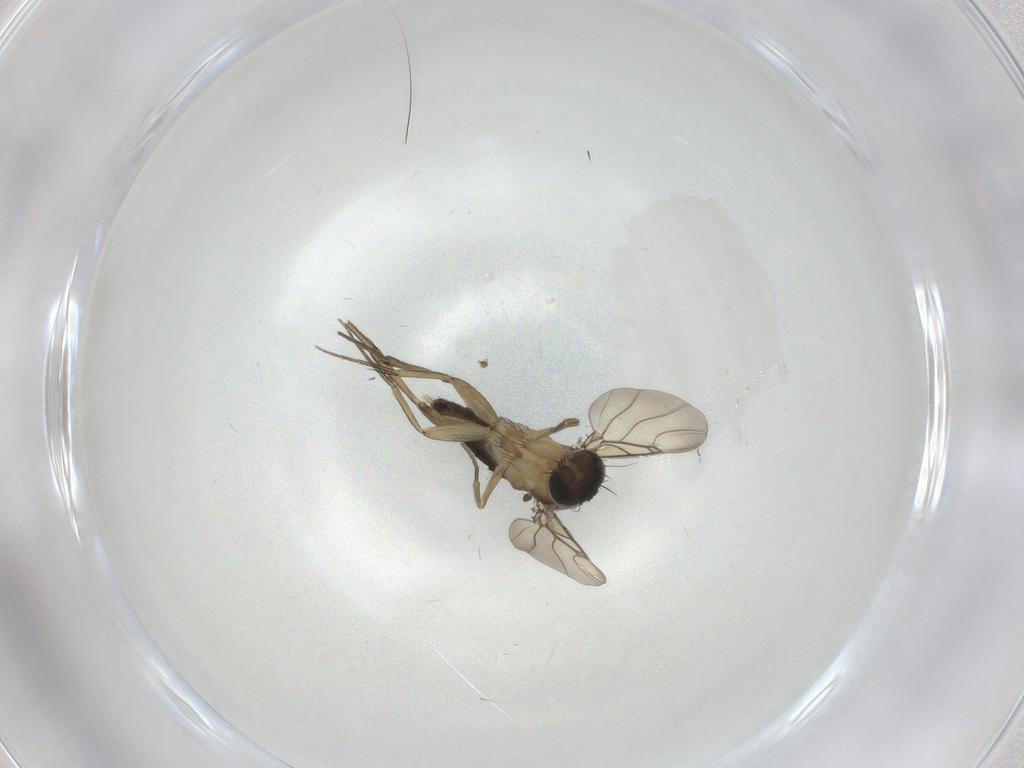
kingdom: Animalia
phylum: Arthropoda
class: Insecta
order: Diptera
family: Phoridae
